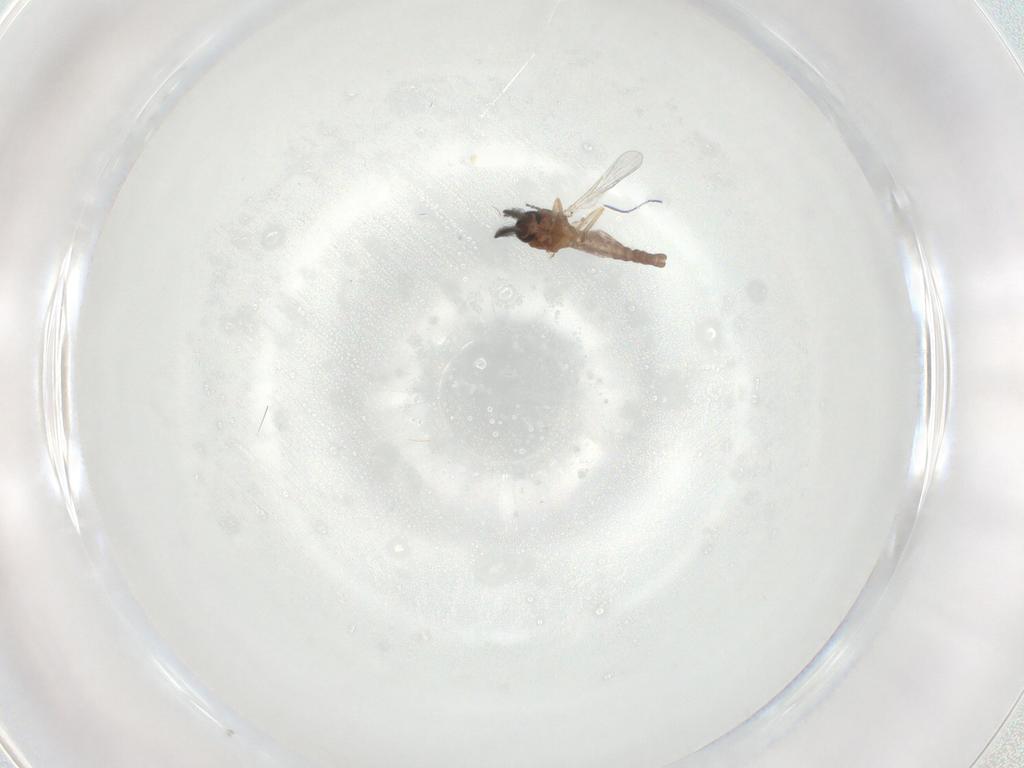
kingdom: Animalia
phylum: Arthropoda
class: Insecta
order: Diptera
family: Ceratopogonidae
